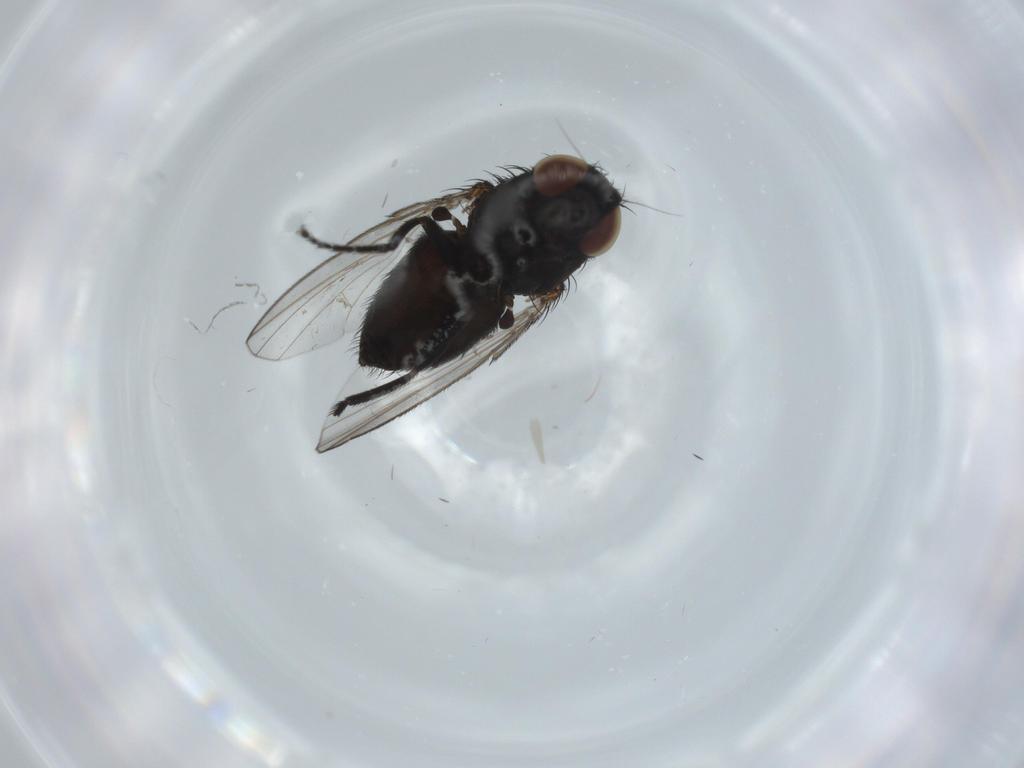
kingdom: Animalia
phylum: Arthropoda
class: Insecta
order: Diptera
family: Milichiidae
